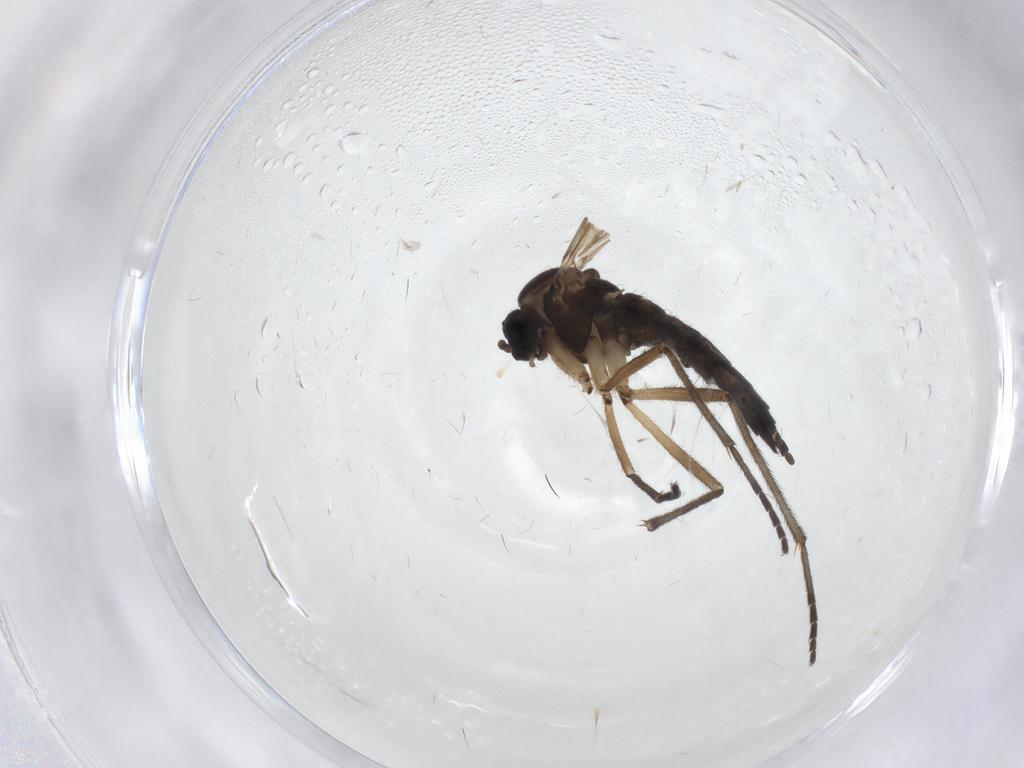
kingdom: Animalia
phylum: Arthropoda
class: Insecta
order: Diptera
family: Sciaridae
